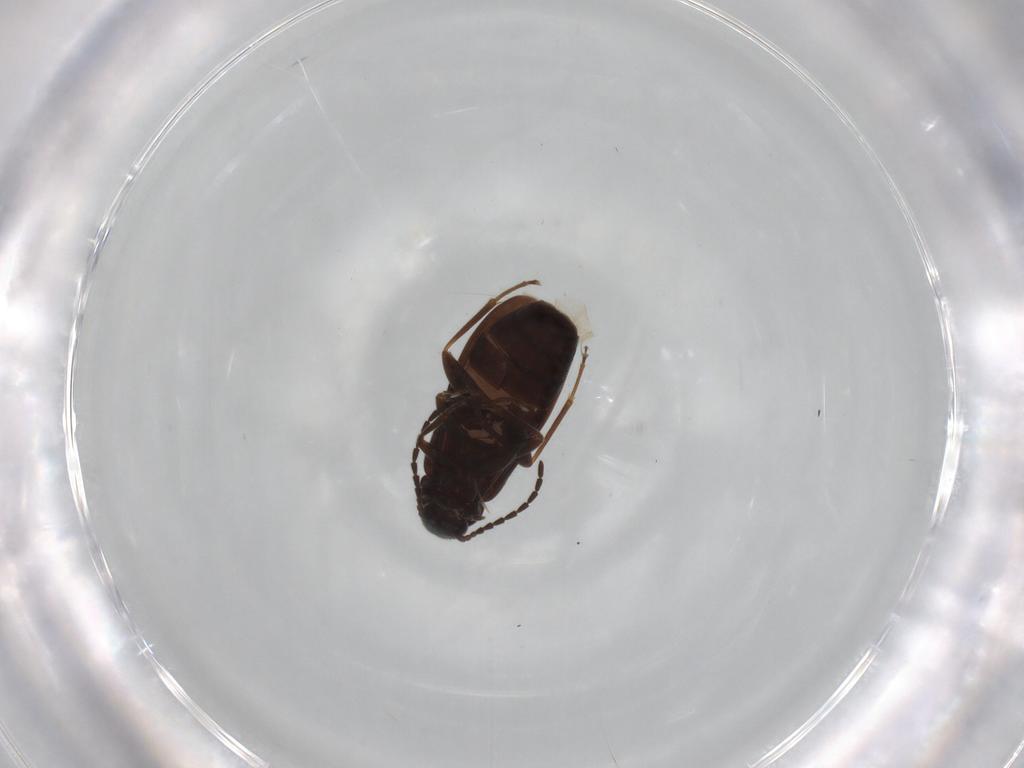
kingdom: Animalia
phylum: Arthropoda
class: Insecta
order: Coleoptera
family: Scraptiidae
